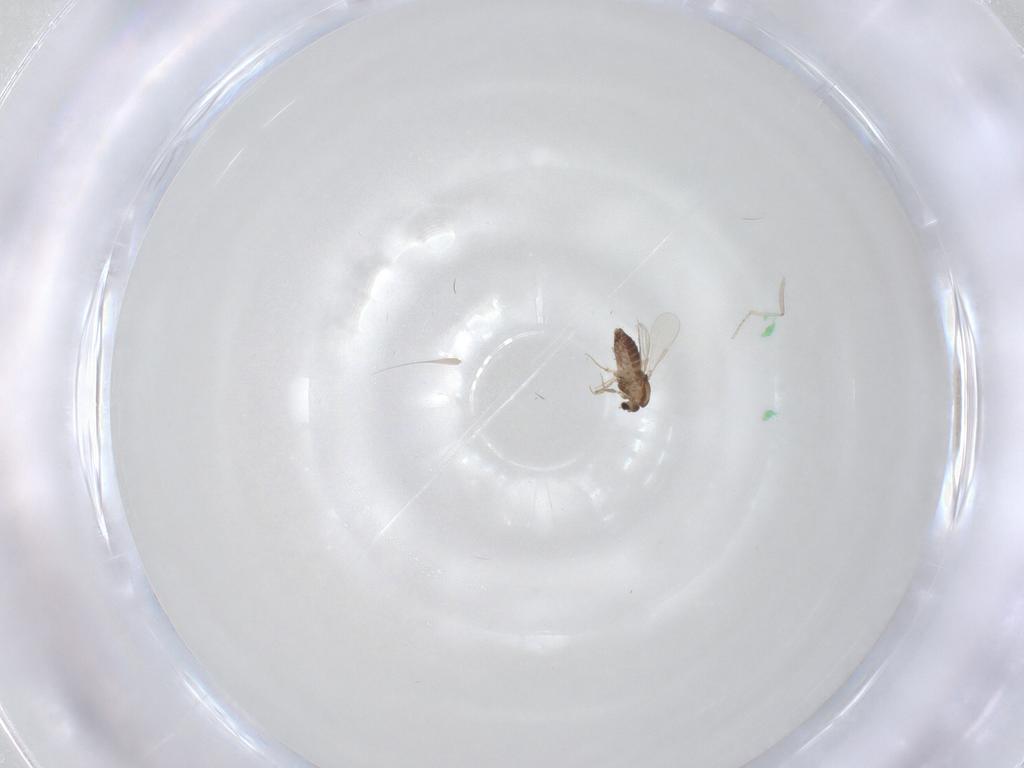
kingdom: Animalia
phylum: Arthropoda
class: Insecta
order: Diptera
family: Chironomidae
